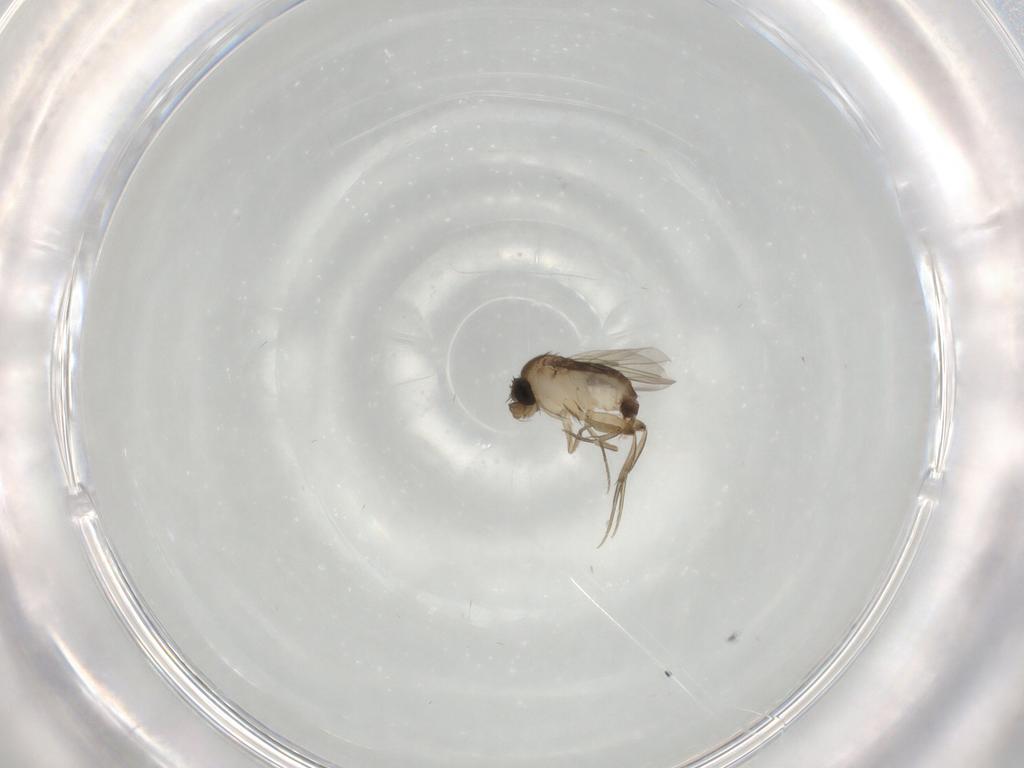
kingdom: Animalia
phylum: Arthropoda
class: Insecta
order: Diptera
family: Phoridae
